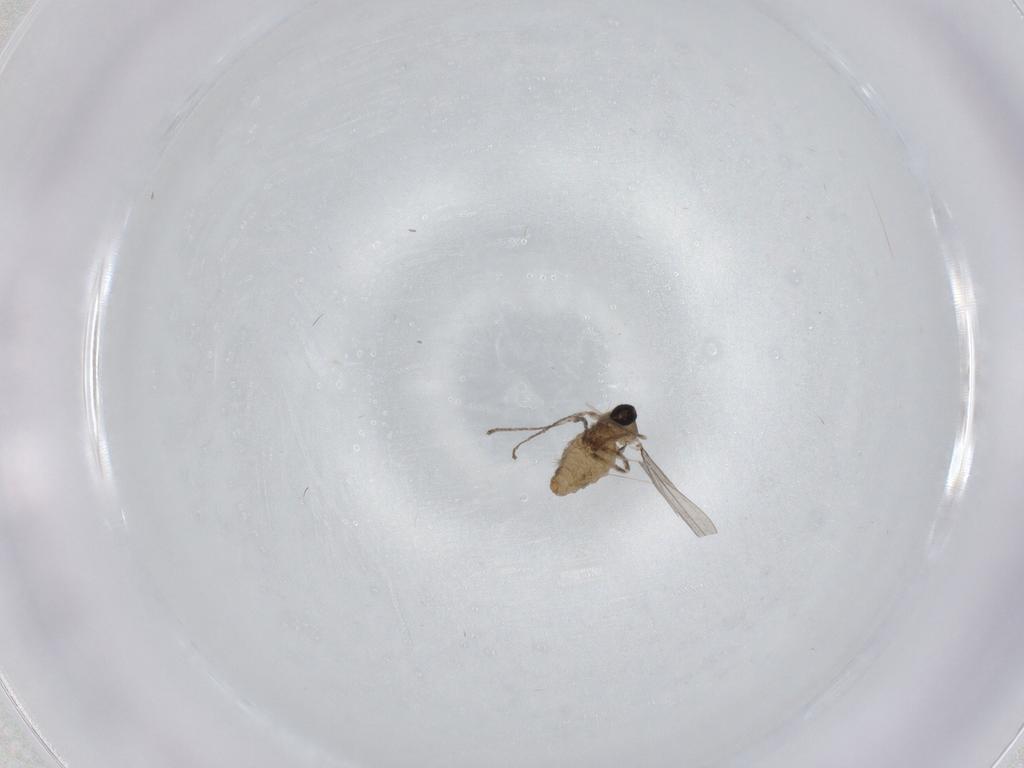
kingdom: Animalia
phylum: Arthropoda
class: Insecta
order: Diptera
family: Cecidomyiidae
